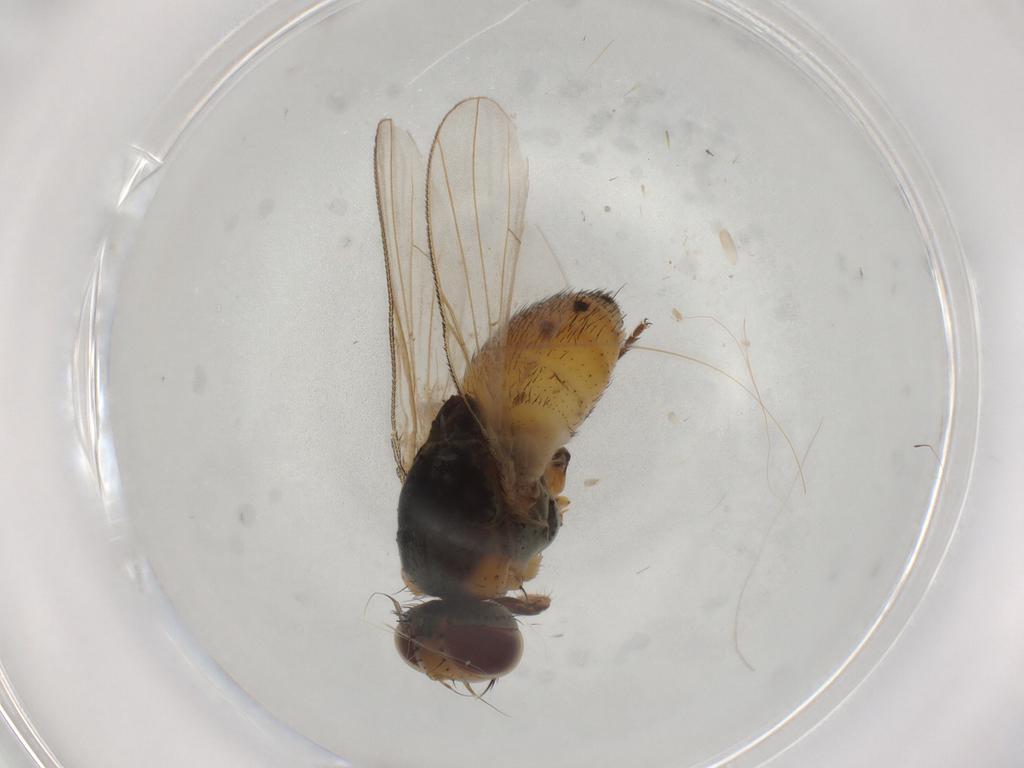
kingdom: Animalia
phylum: Arthropoda
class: Insecta
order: Diptera
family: Muscidae
